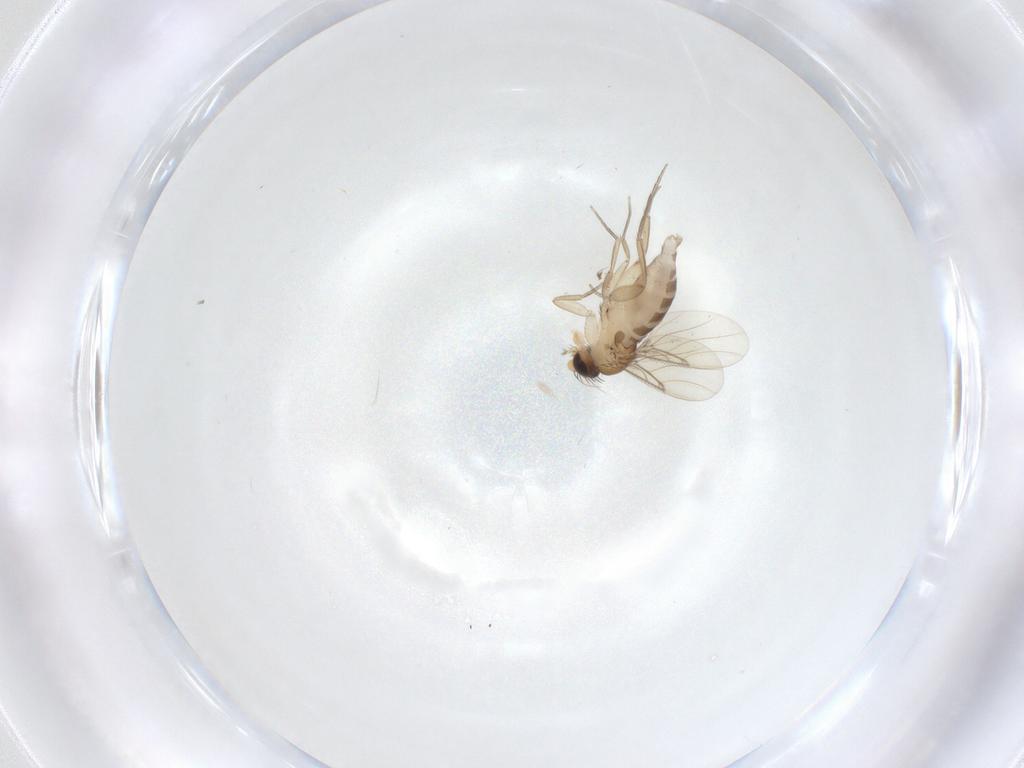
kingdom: Animalia
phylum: Arthropoda
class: Insecta
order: Diptera
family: Phoridae
